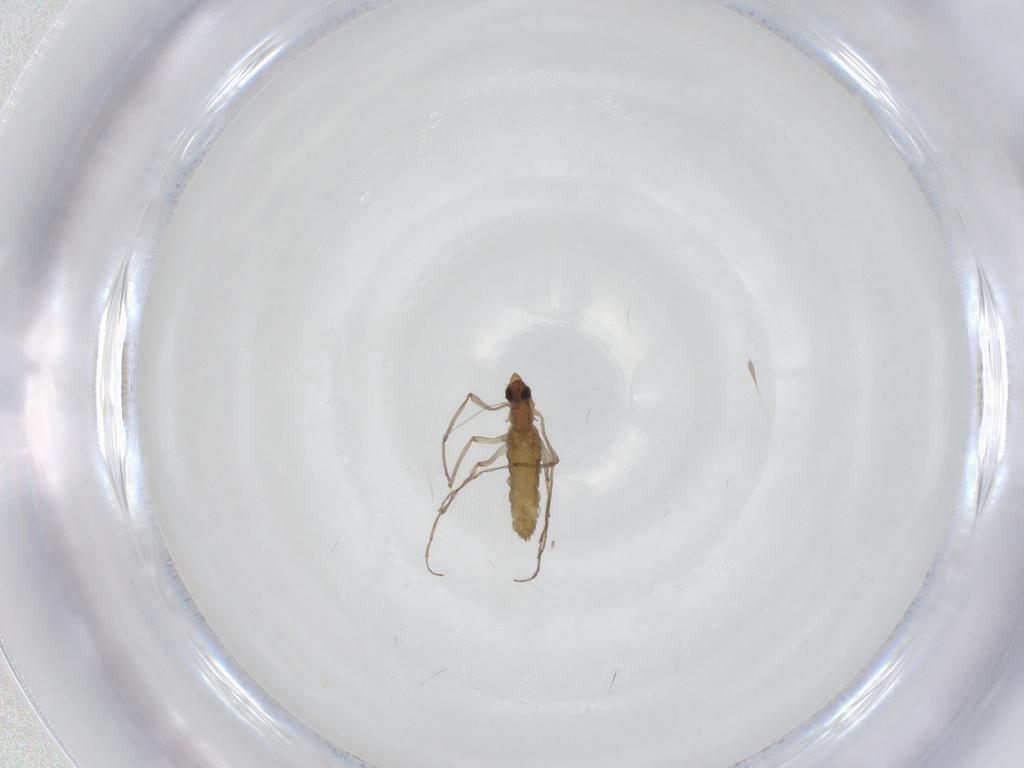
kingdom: Animalia
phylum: Arthropoda
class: Insecta
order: Diptera
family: Chironomidae
